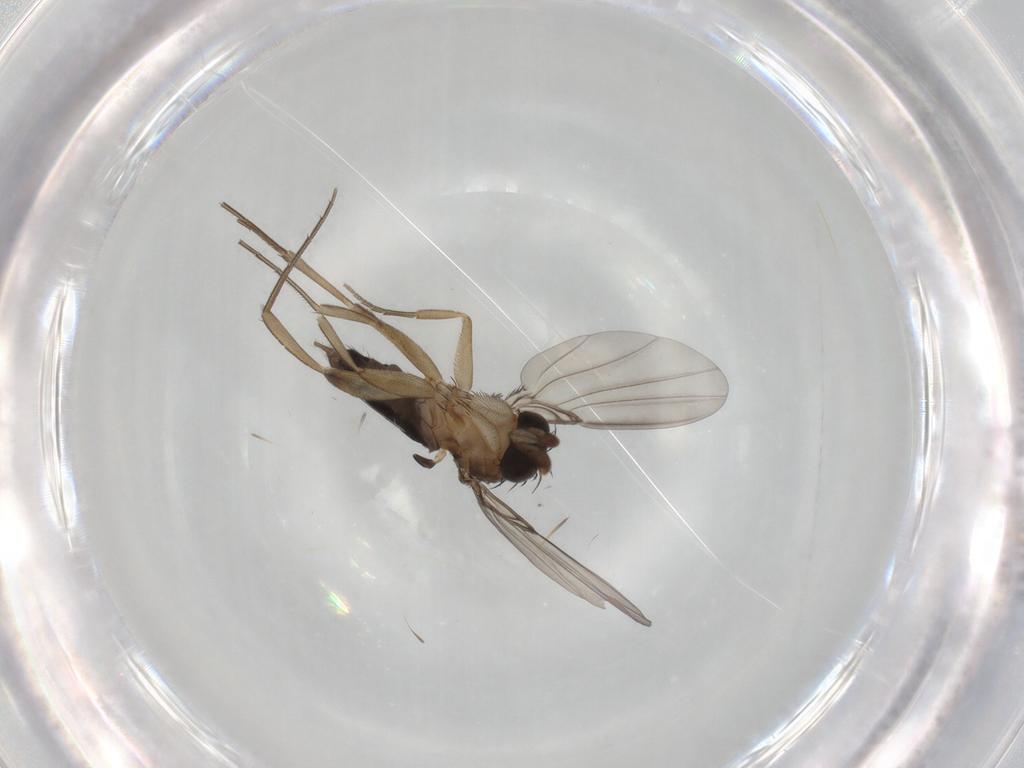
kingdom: Animalia
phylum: Arthropoda
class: Insecta
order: Diptera
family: Phoridae
